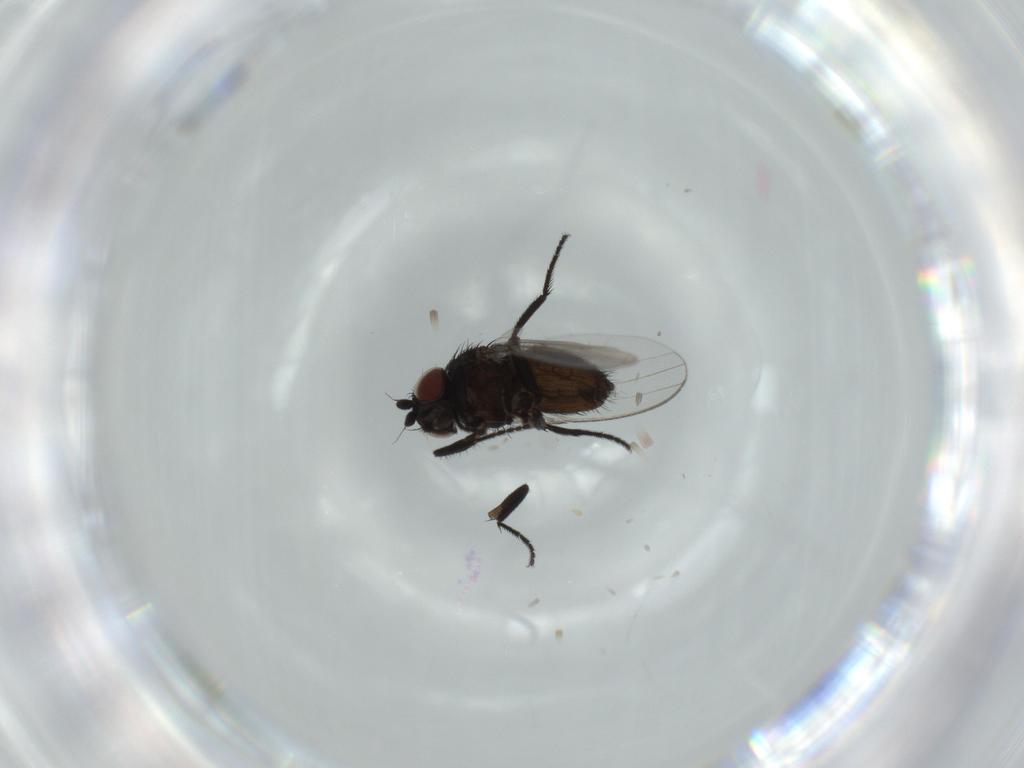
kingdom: Animalia
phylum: Arthropoda
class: Insecta
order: Diptera
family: Milichiidae
